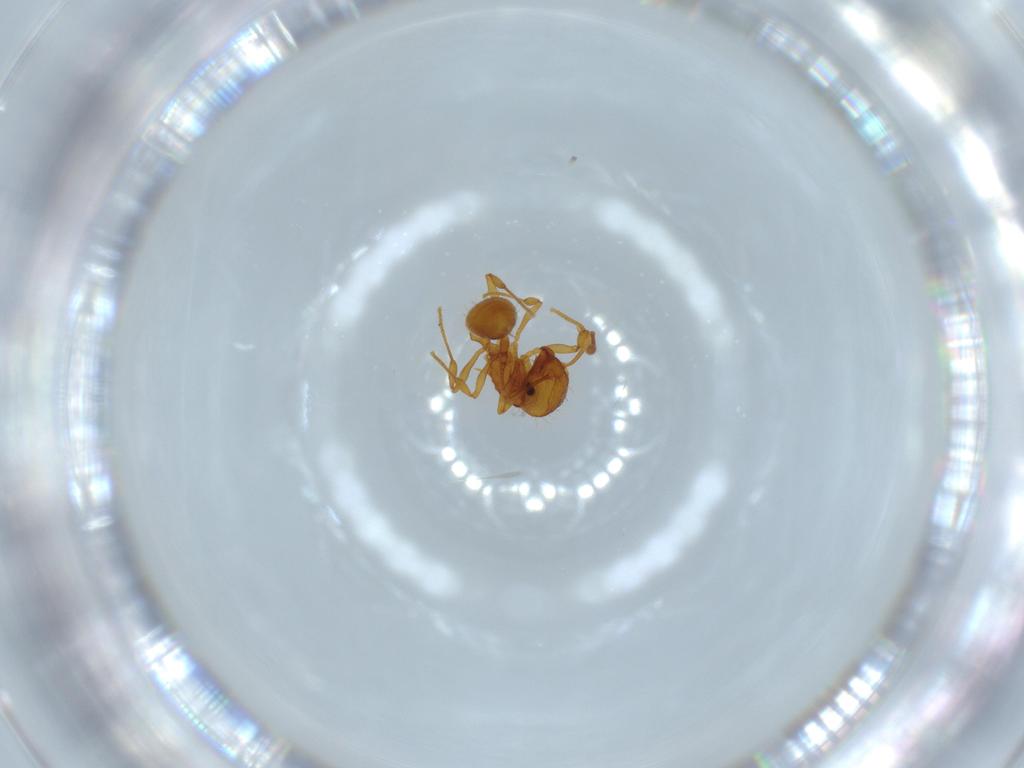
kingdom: Animalia
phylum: Arthropoda
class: Insecta
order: Hymenoptera
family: Formicidae
